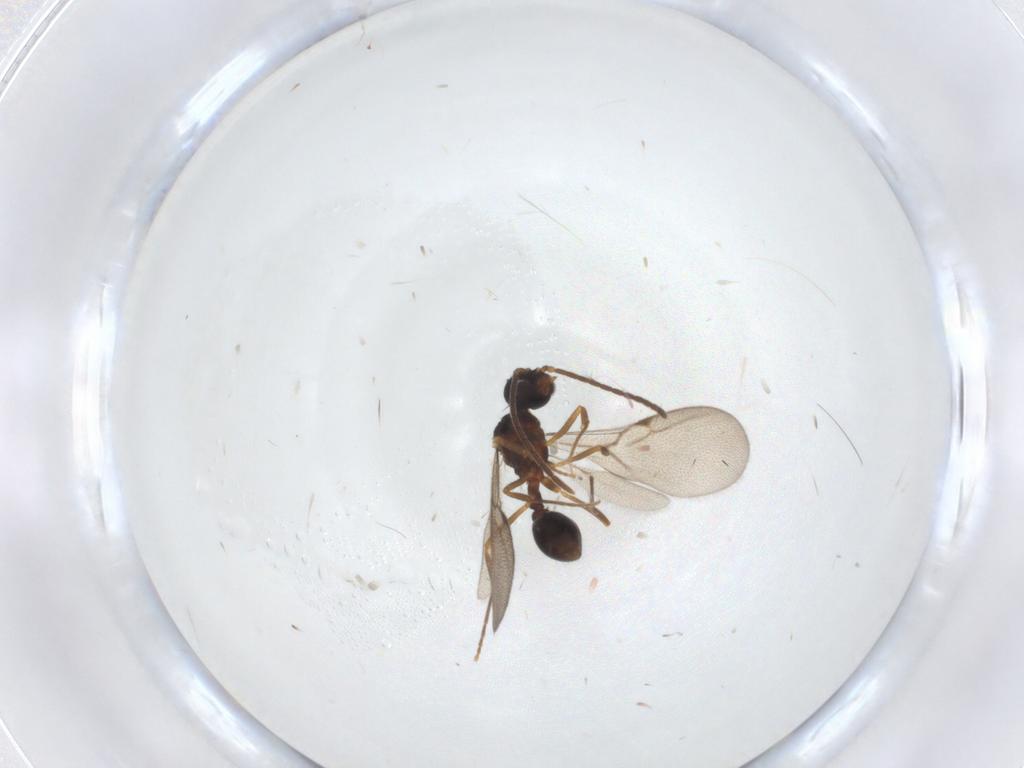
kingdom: Animalia
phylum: Arthropoda
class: Insecta
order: Hymenoptera
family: Formicidae
